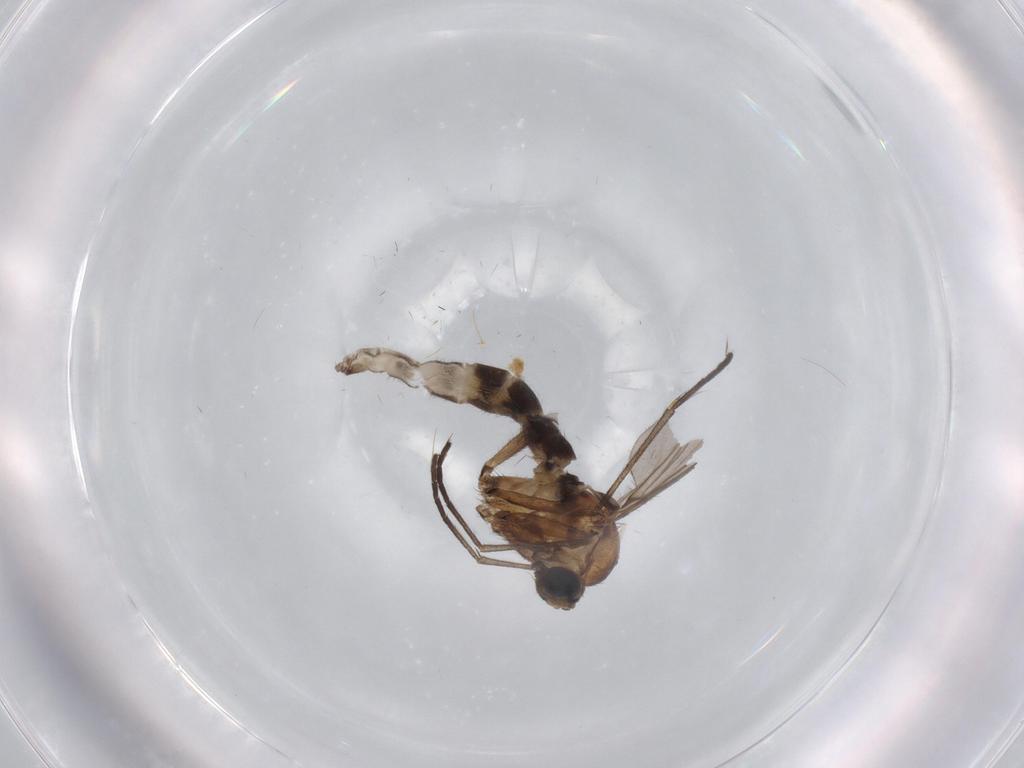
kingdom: Animalia
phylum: Arthropoda
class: Insecta
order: Diptera
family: Sciaridae
